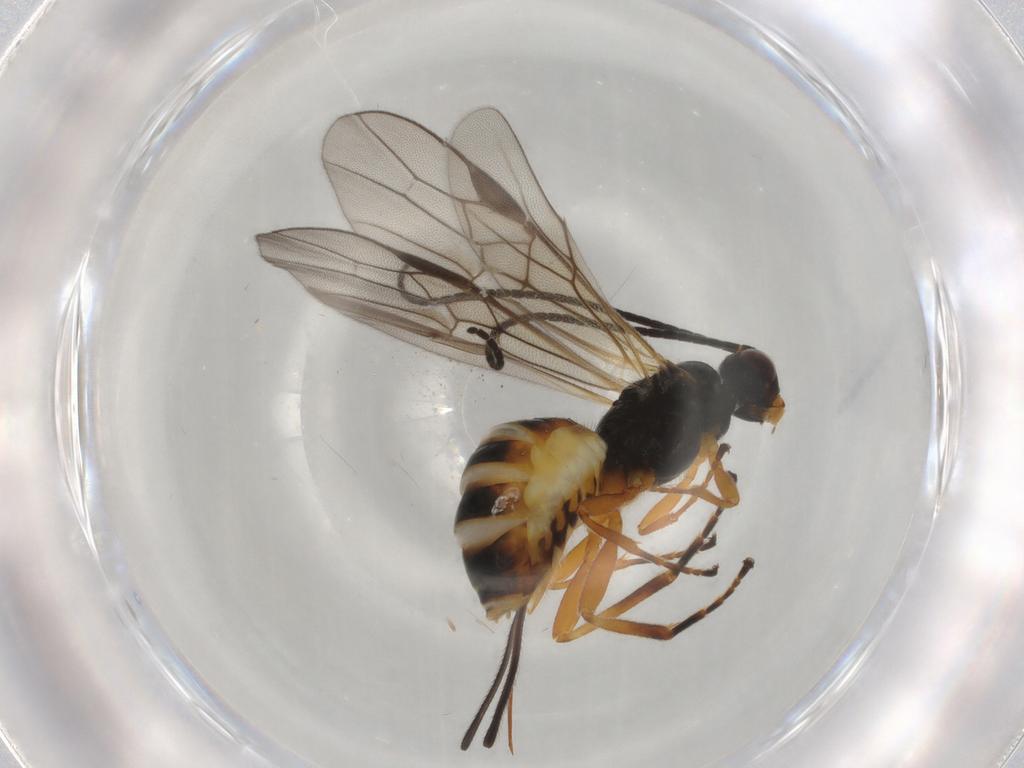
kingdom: Animalia
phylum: Arthropoda
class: Insecta
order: Hymenoptera
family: Braconidae
